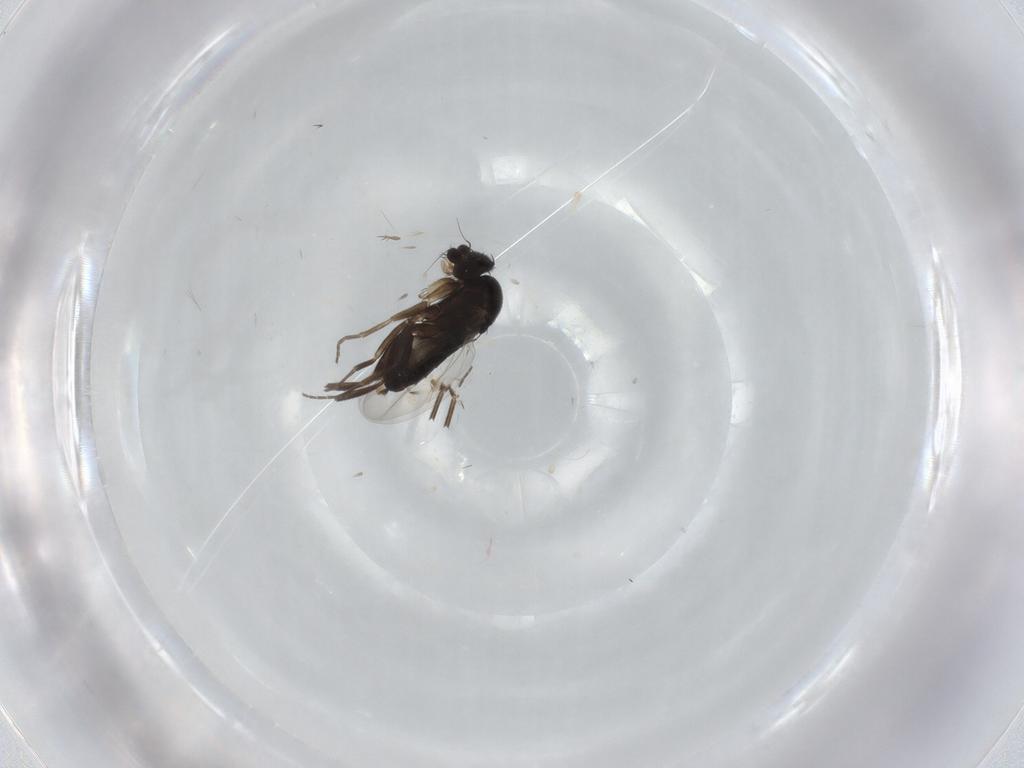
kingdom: Animalia
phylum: Arthropoda
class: Insecta
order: Diptera
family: Phoridae
